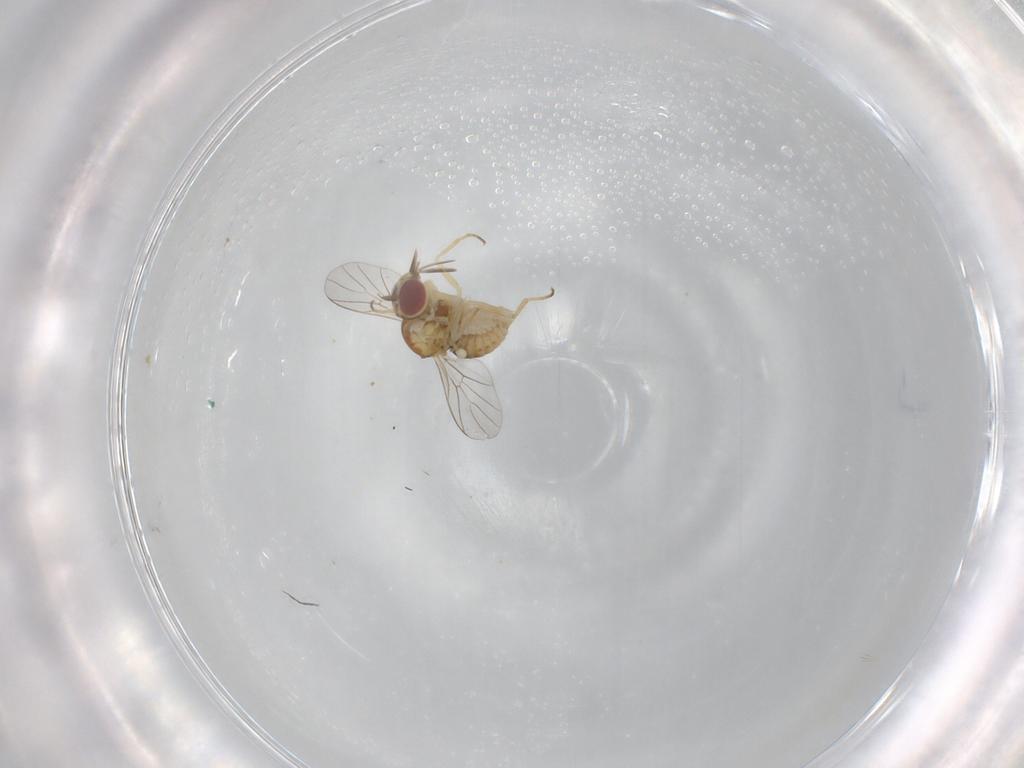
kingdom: Animalia
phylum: Arthropoda
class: Insecta
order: Diptera
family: Bombyliidae
